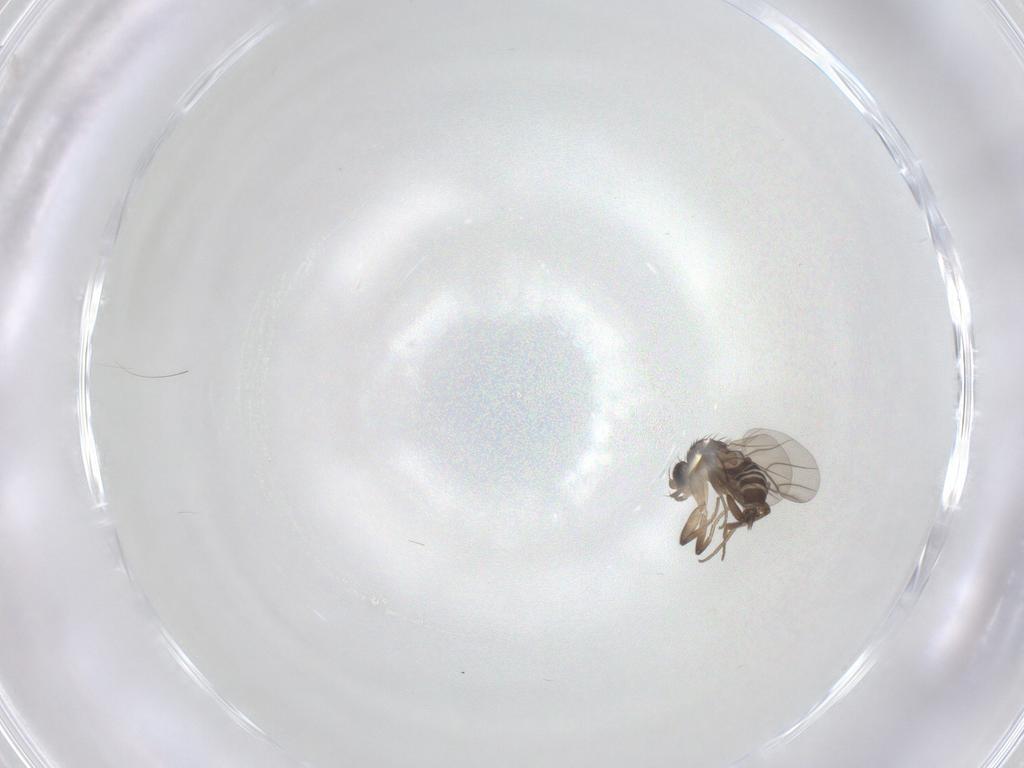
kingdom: Animalia
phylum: Arthropoda
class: Insecta
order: Diptera
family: Phoridae
